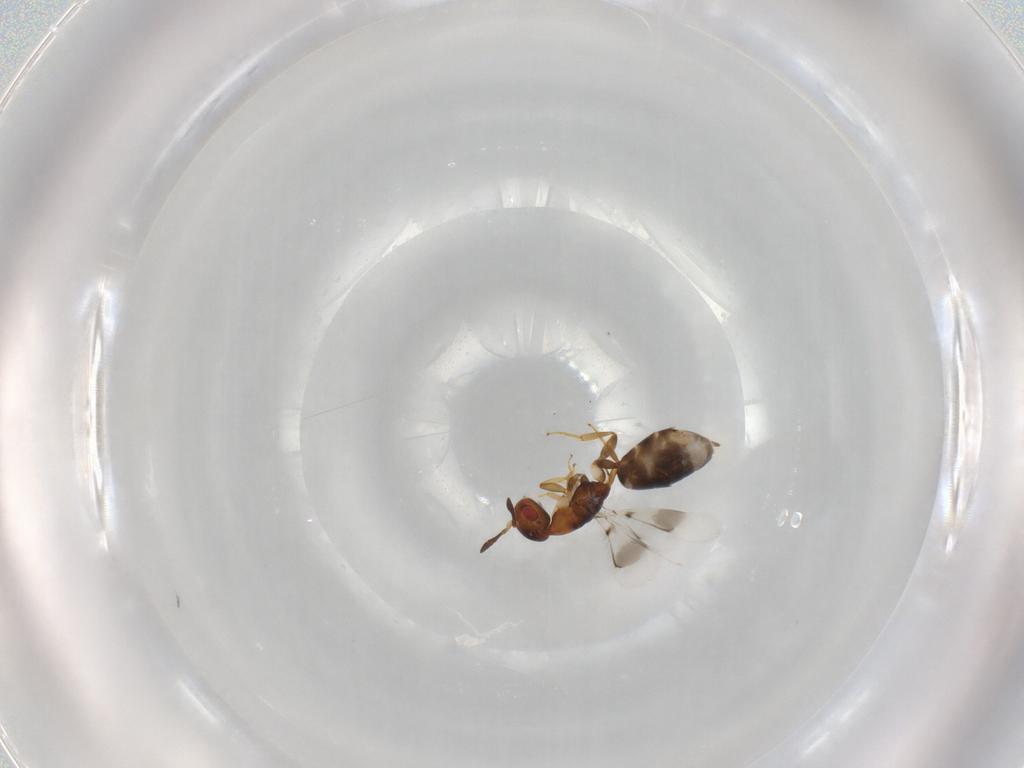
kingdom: Animalia
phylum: Arthropoda
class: Insecta
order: Hymenoptera
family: Cerocephalidae
